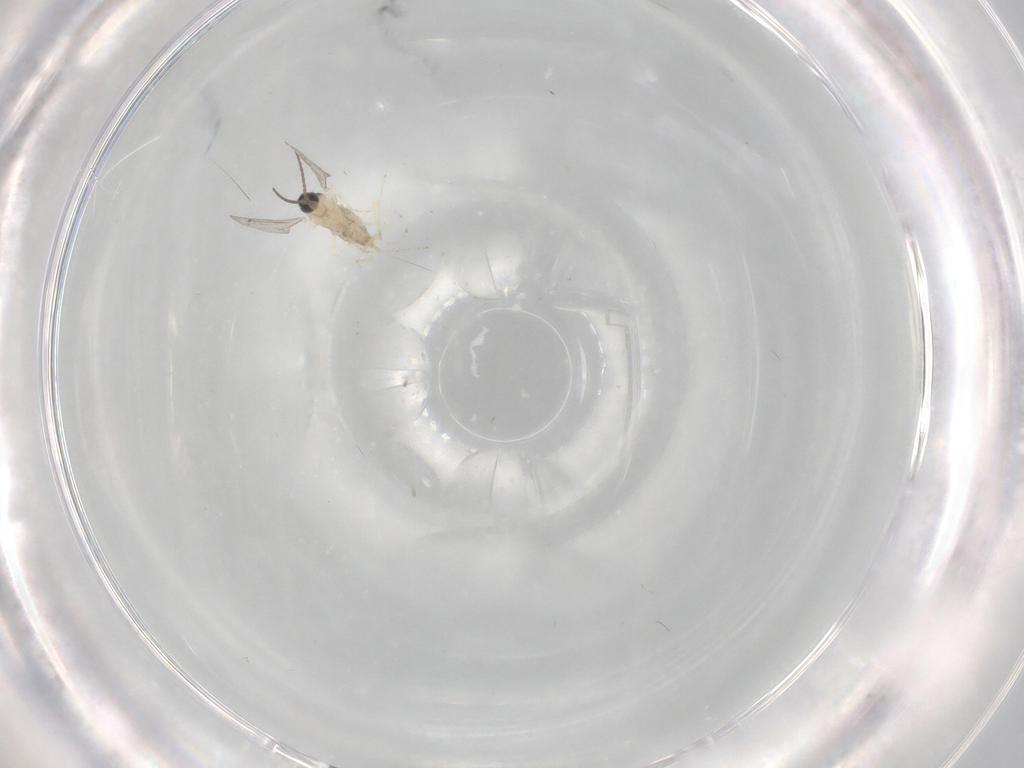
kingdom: Animalia
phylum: Arthropoda
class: Insecta
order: Diptera
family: Cecidomyiidae
